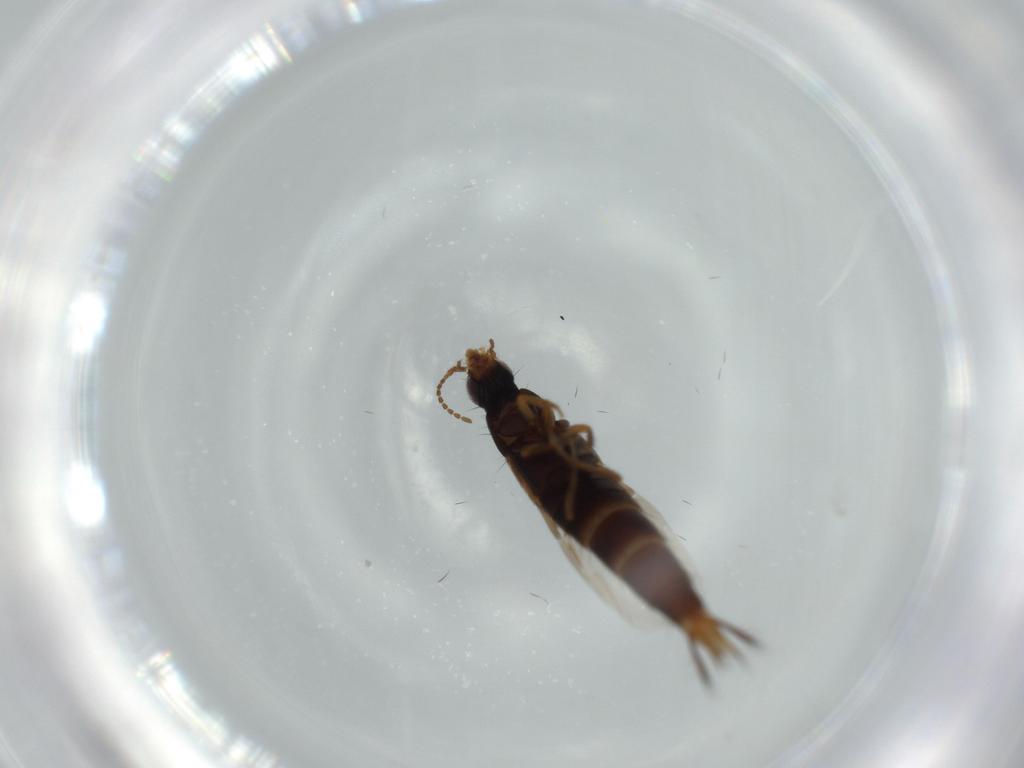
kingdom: Animalia
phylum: Arthropoda
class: Insecta
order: Coleoptera
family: Staphylinidae
